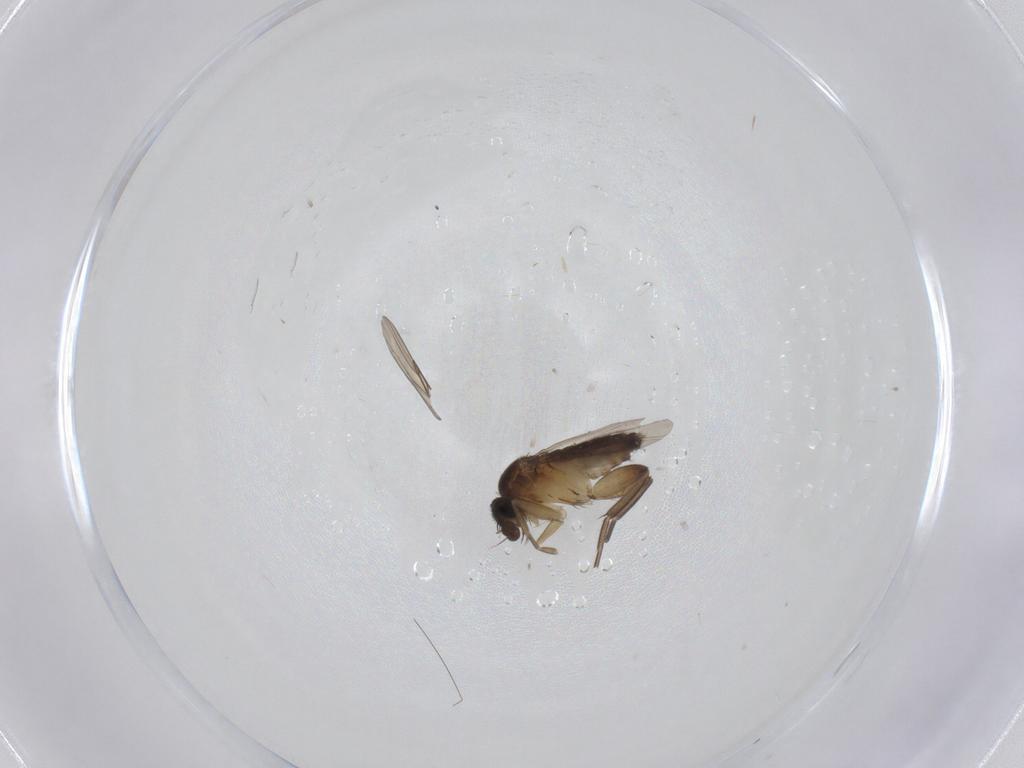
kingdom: Animalia
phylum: Arthropoda
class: Insecta
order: Diptera
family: Phoridae
